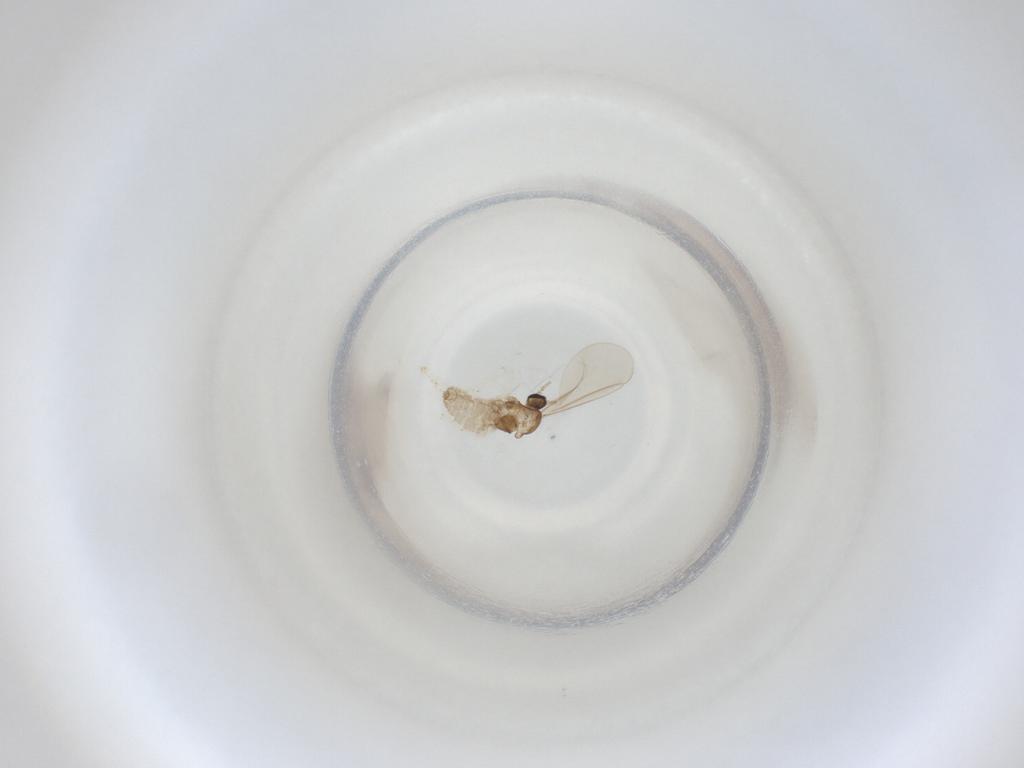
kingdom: Animalia
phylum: Arthropoda
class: Insecta
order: Diptera
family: Cecidomyiidae
